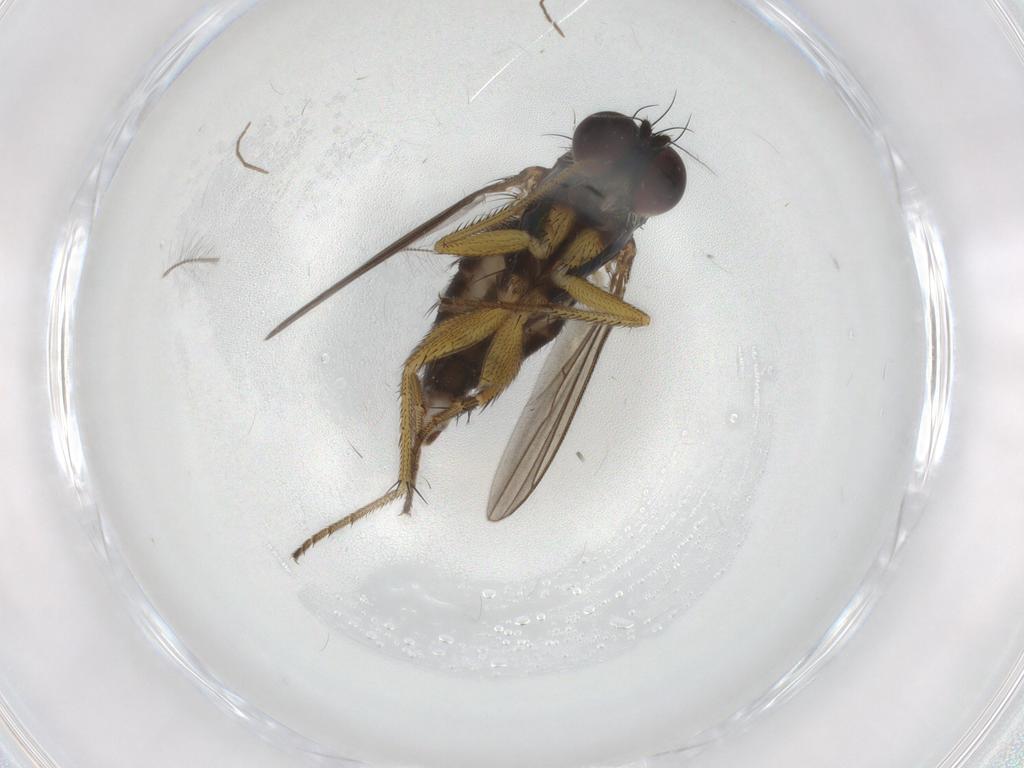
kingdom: Animalia
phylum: Arthropoda
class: Insecta
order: Diptera
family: Dolichopodidae
